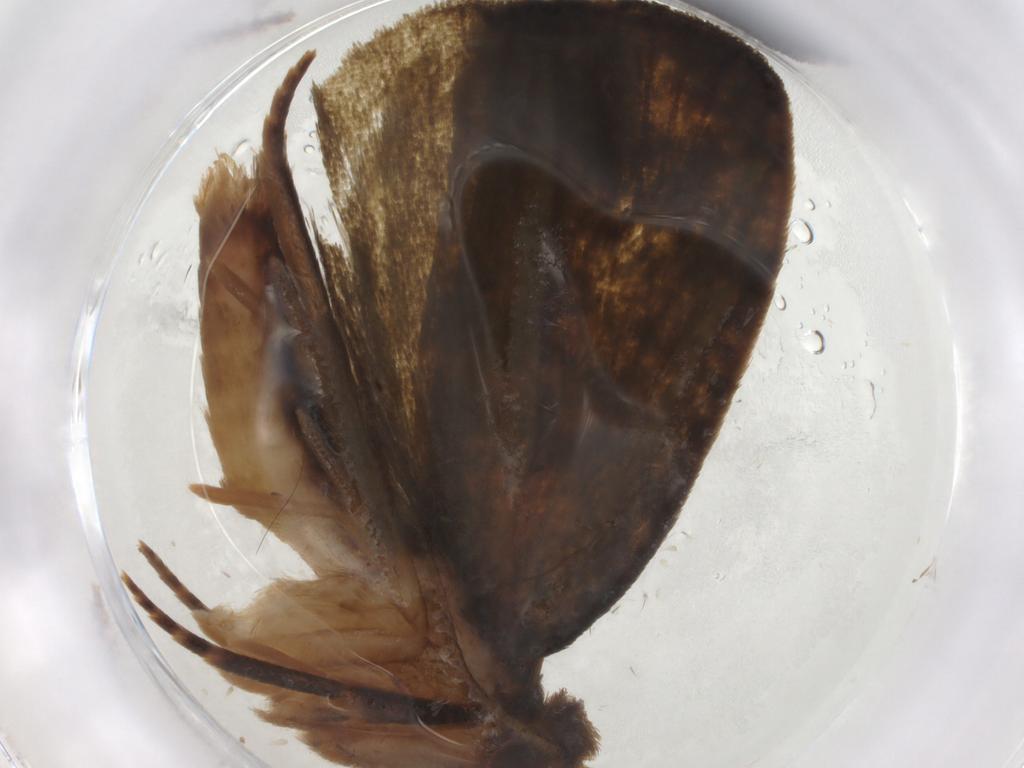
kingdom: Animalia
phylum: Arthropoda
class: Insecta
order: Lepidoptera
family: Geometridae
